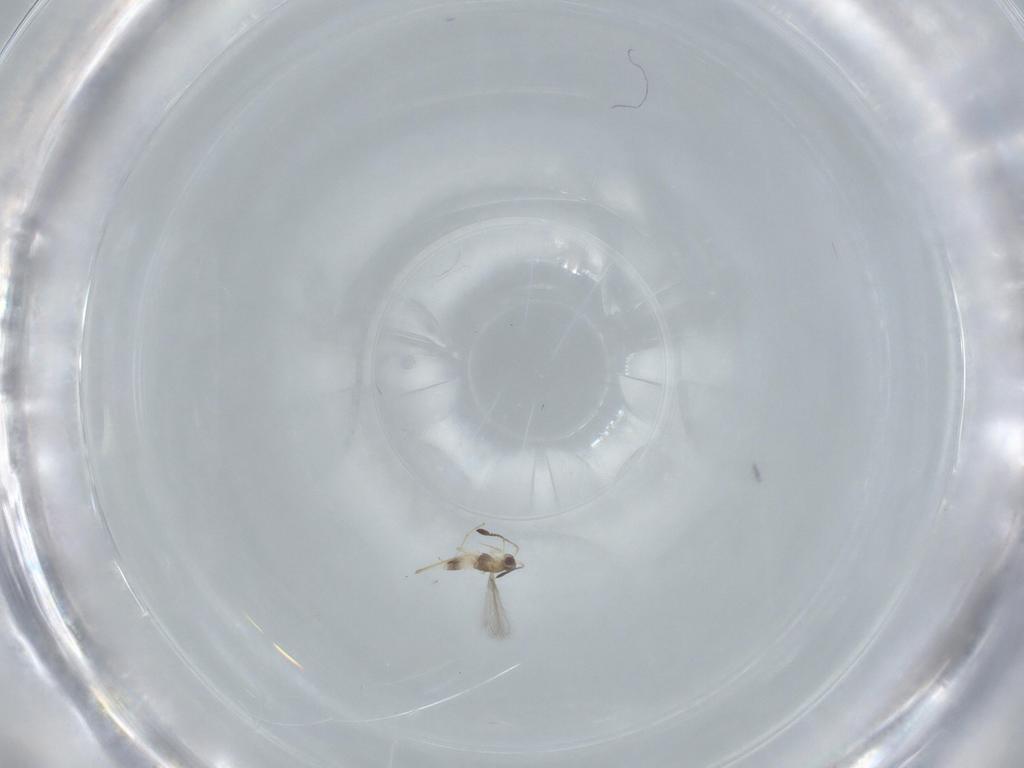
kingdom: Animalia
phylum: Arthropoda
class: Insecta
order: Hymenoptera
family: Mymaridae
